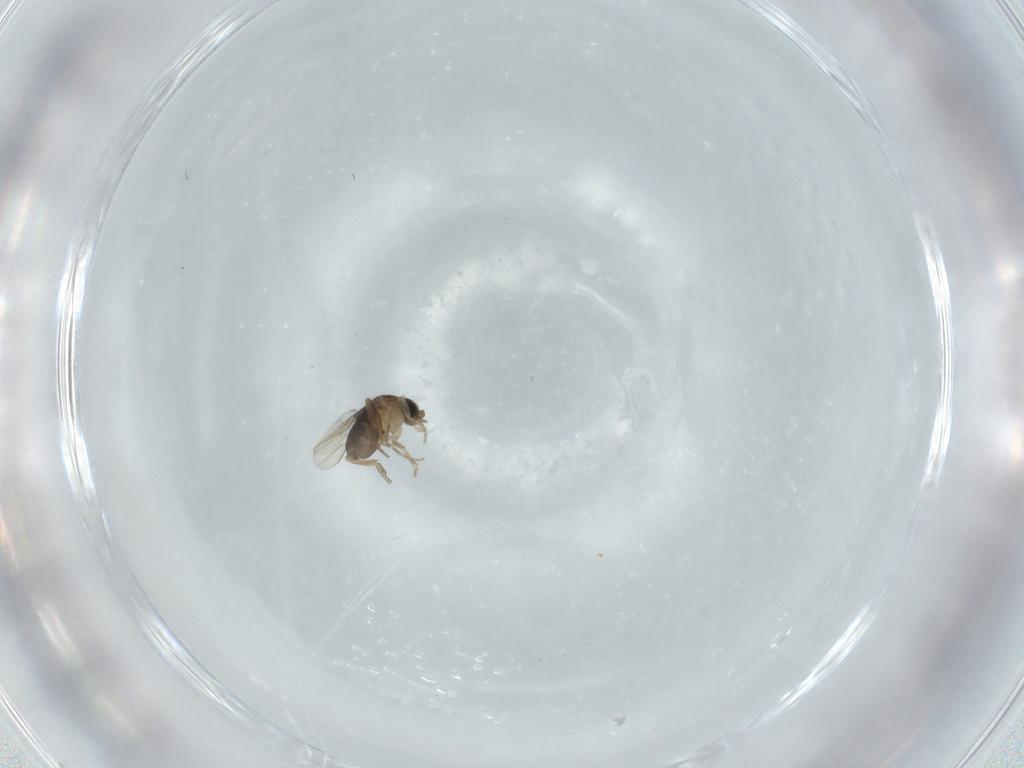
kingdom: Animalia
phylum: Arthropoda
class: Insecta
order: Diptera
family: Phoridae
